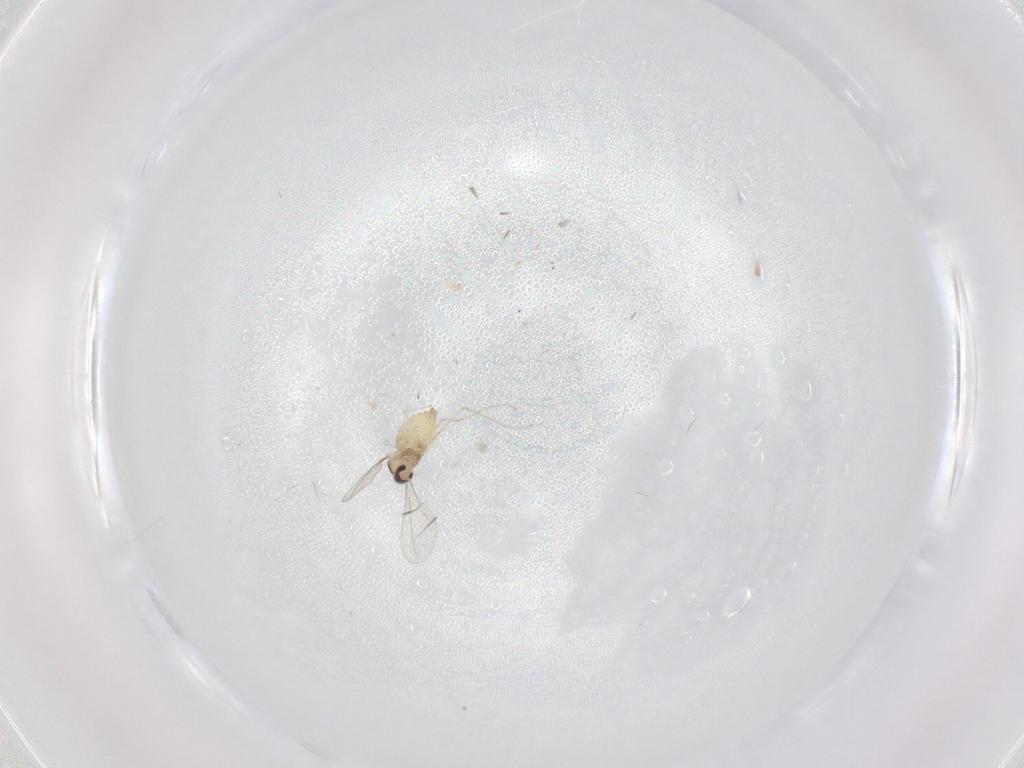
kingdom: Animalia
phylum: Arthropoda
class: Insecta
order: Diptera
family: Cecidomyiidae
